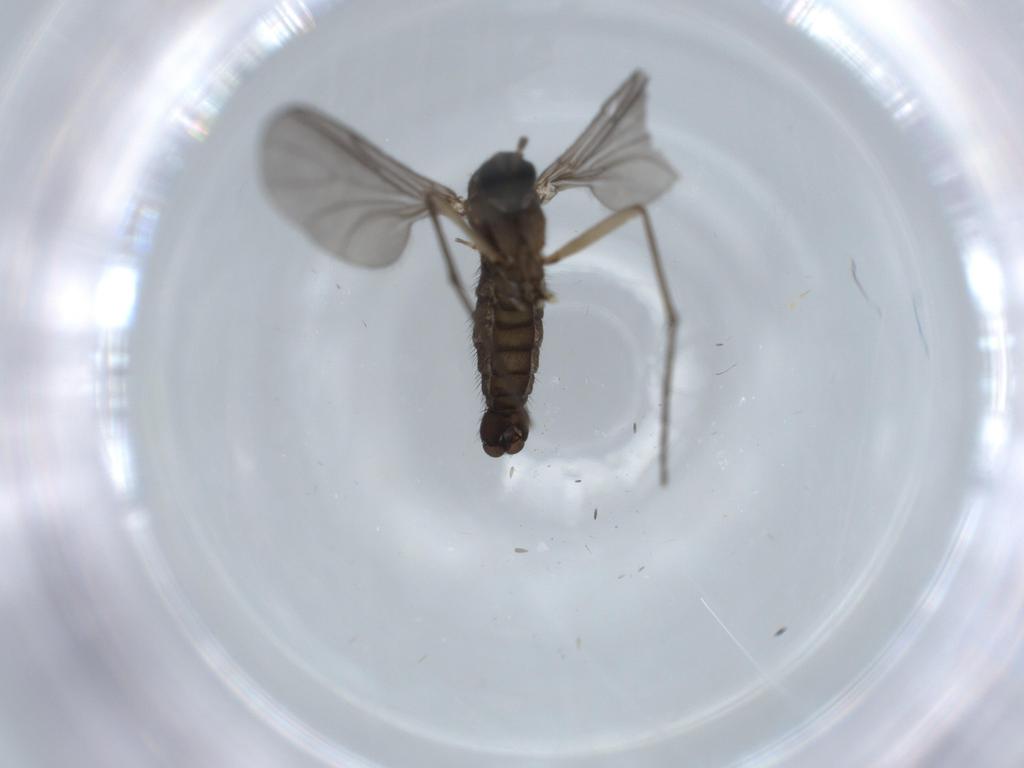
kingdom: Animalia
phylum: Arthropoda
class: Insecta
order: Diptera
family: Sciaridae
